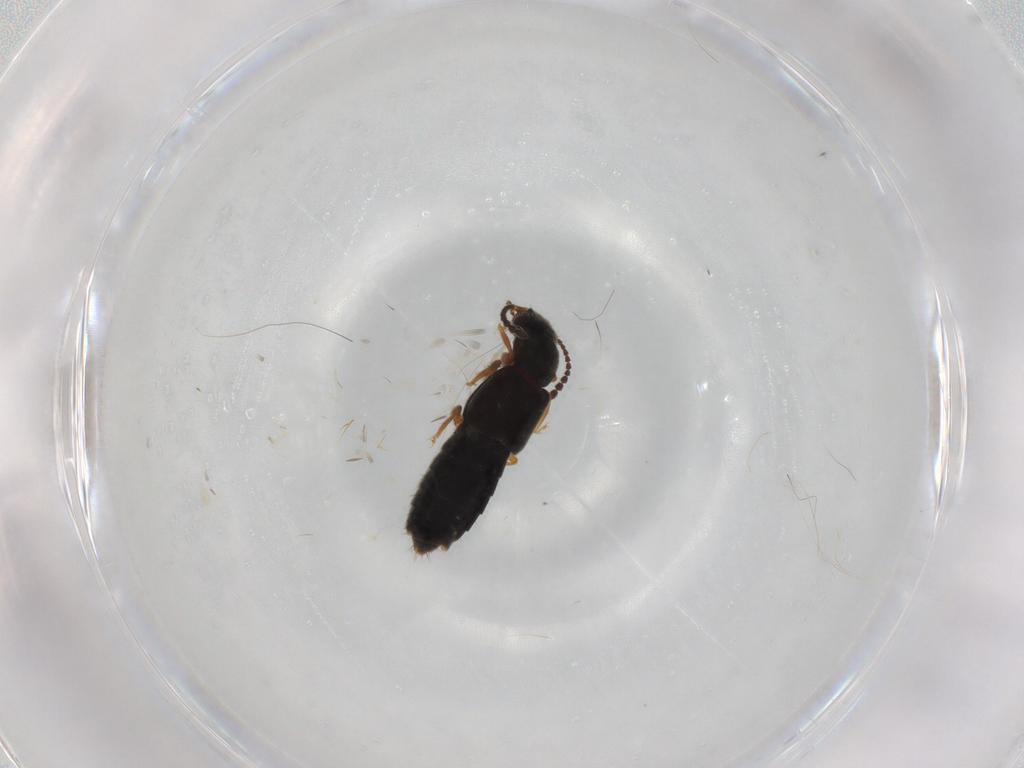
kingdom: Animalia
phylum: Arthropoda
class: Insecta
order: Coleoptera
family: Staphylinidae
